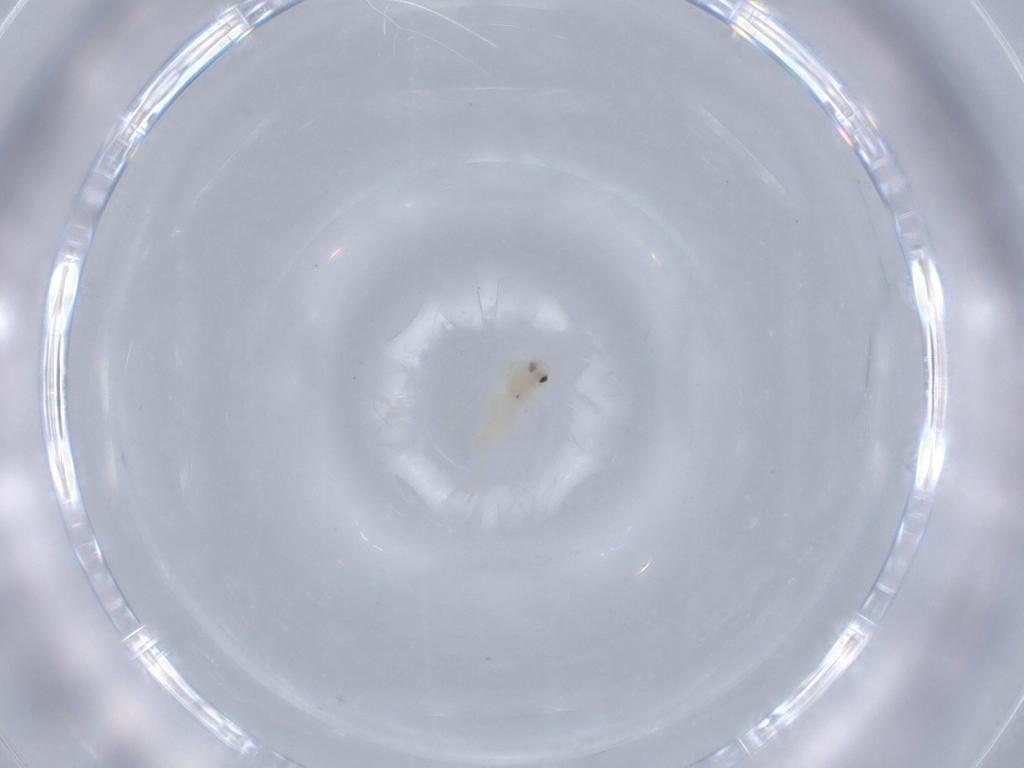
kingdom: Animalia
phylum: Arthropoda
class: Insecta
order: Hemiptera
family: Aleyrodidae
